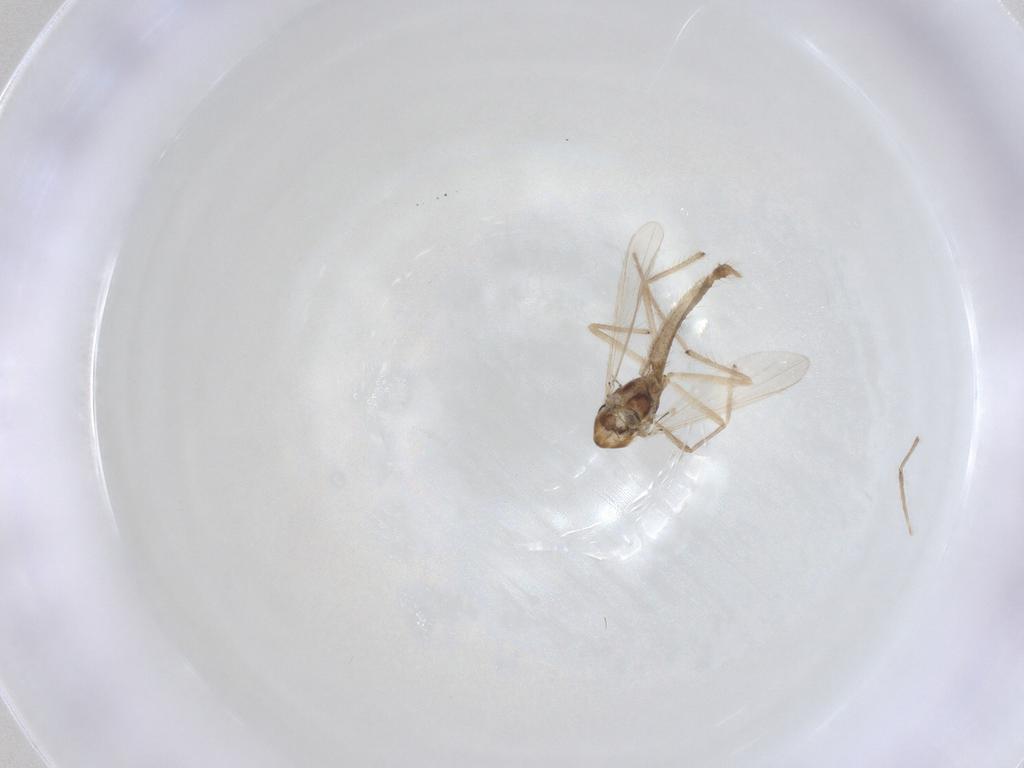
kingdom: Animalia
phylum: Arthropoda
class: Insecta
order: Diptera
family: Chironomidae
